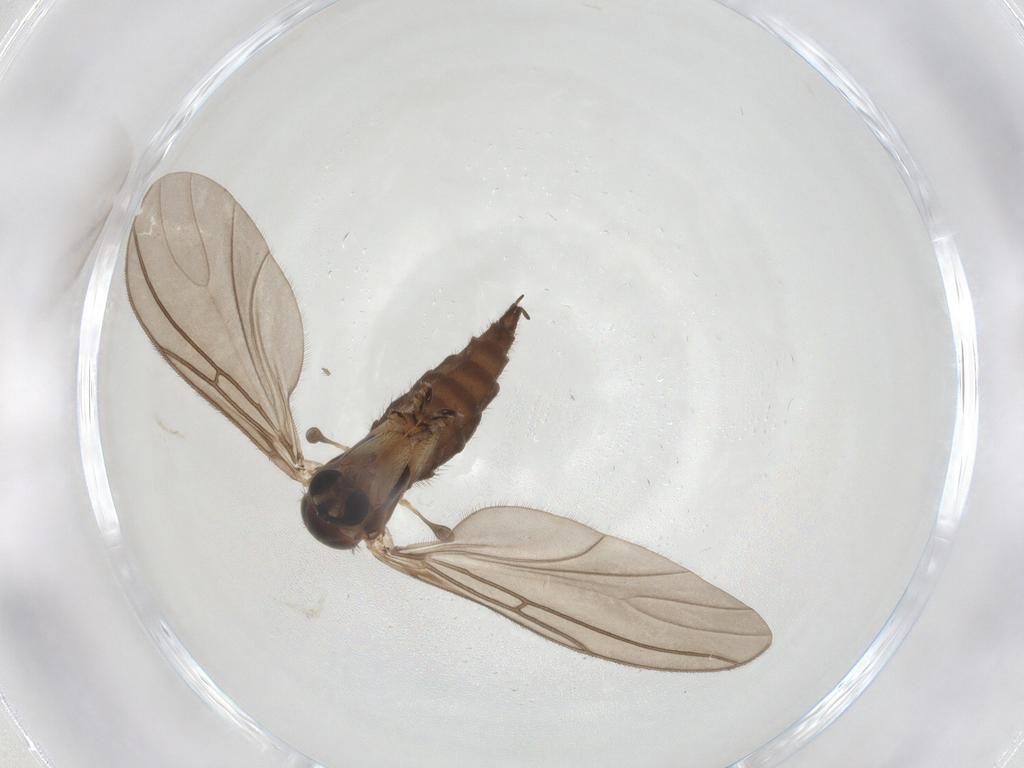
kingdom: Animalia
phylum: Arthropoda
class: Insecta
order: Diptera
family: Sciaridae
